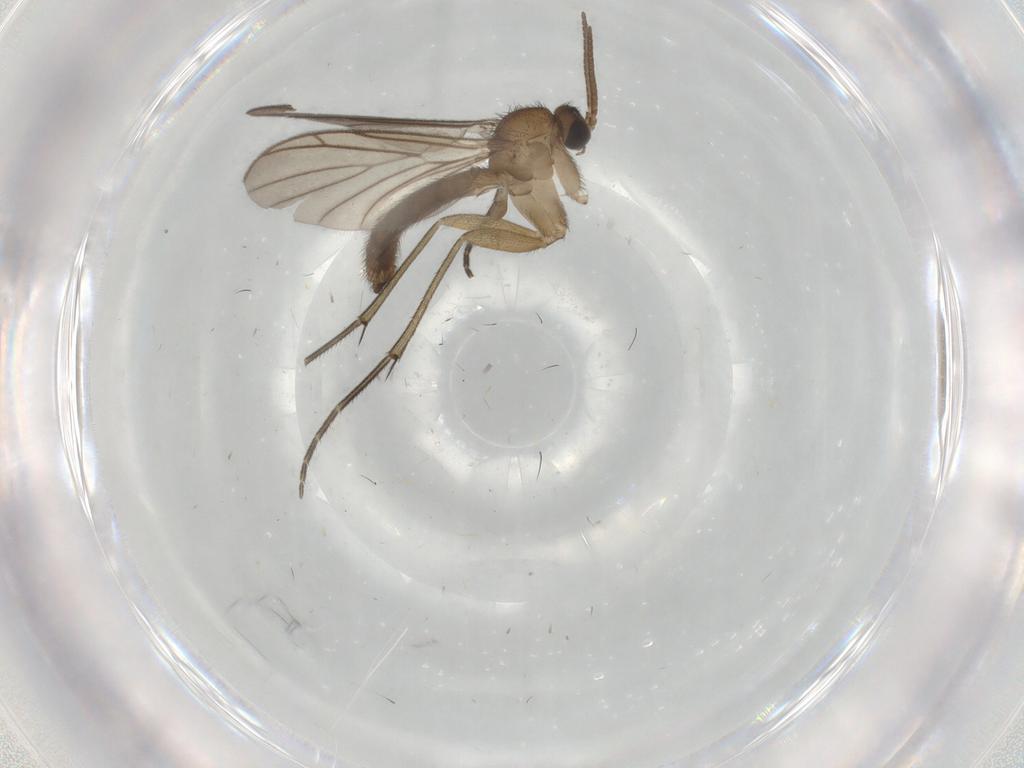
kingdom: Animalia
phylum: Arthropoda
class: Insecta
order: Diptera
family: Keroplatidae
